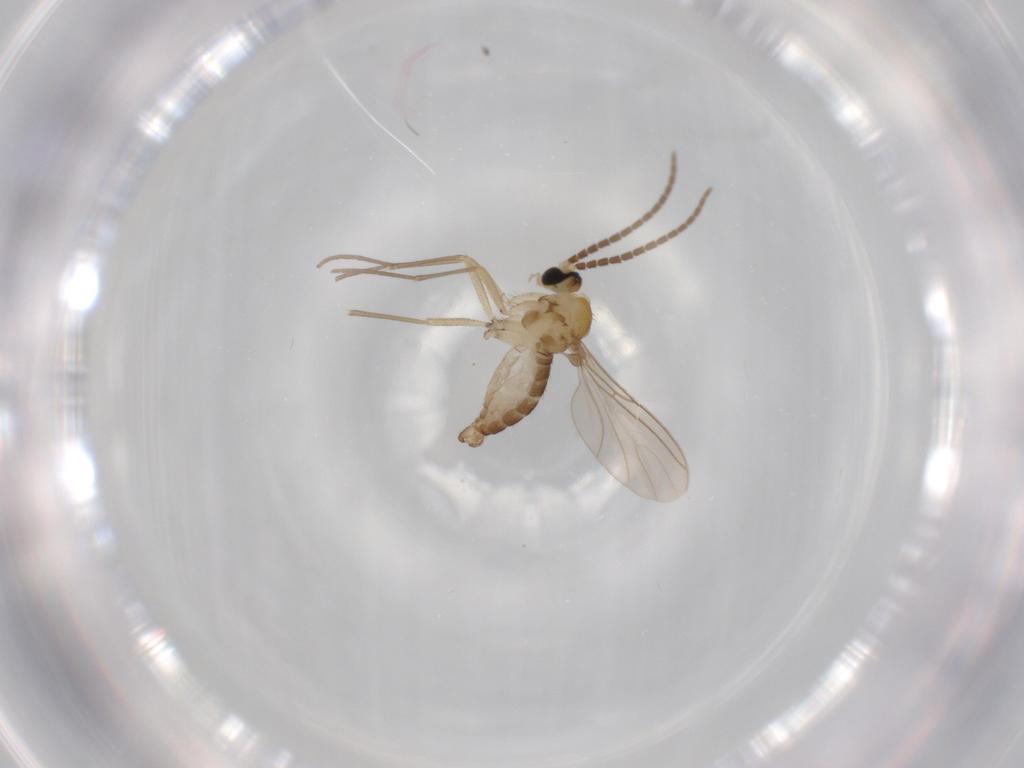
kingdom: Animalia
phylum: Arthropoda
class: Insecta
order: Diptera
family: Sciaridae
